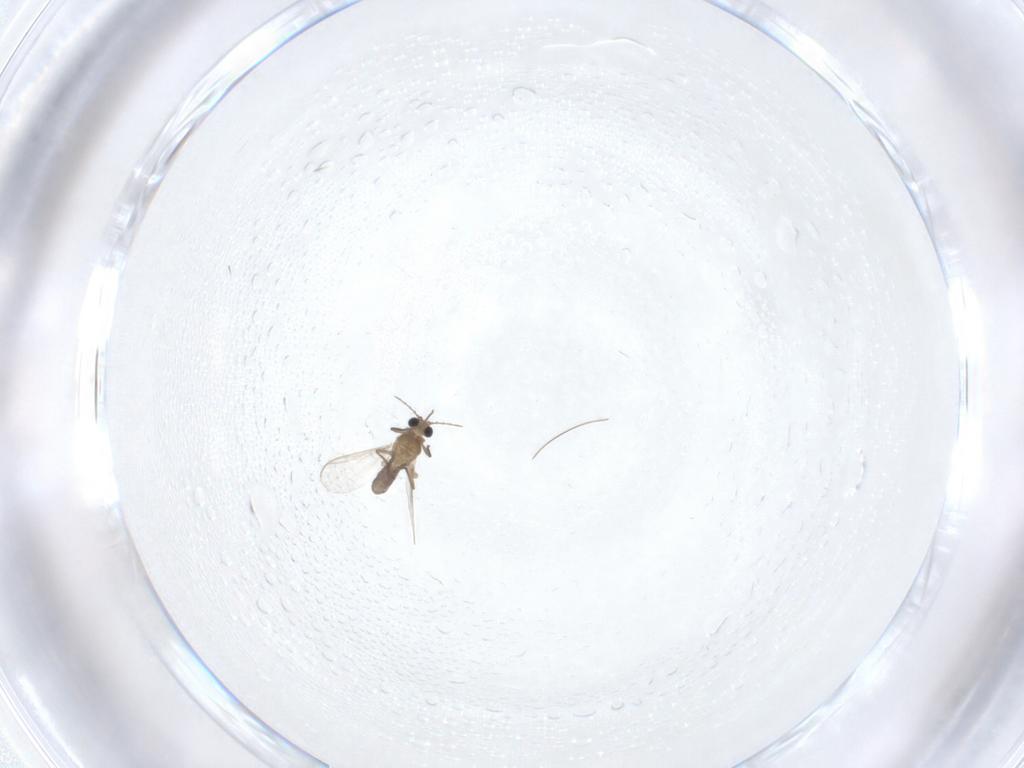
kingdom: Animalia
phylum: Arthropoda
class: Insecta
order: Diptera
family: Chironomidae
